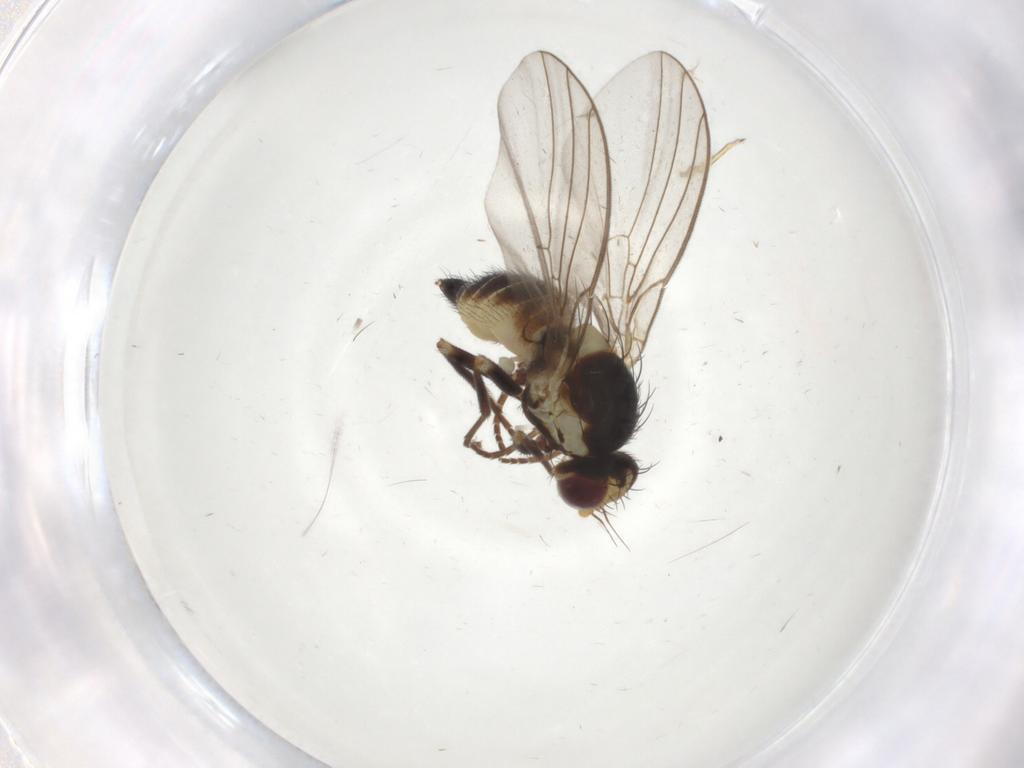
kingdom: Animalia
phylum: Arthropoda
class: Insecta
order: Diptera
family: Agromyzidae
